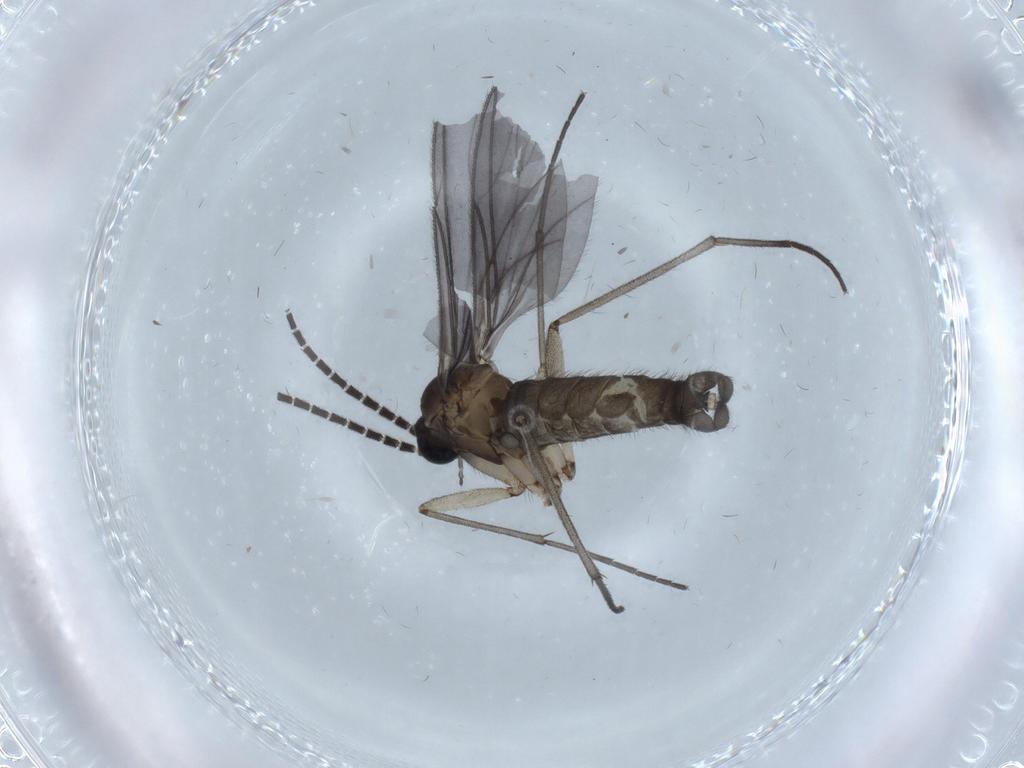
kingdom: Animalia
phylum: Arthropoda
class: Insecta
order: Diptera
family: Sciaridae
